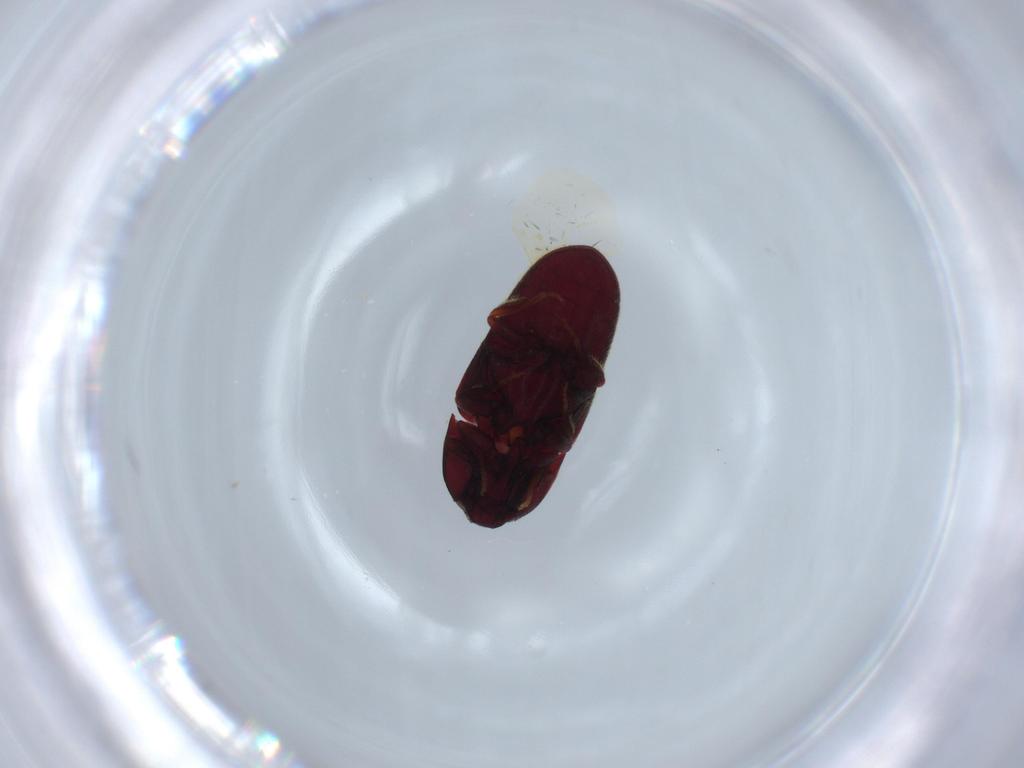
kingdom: Animalia
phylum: Arthropoda
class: Insecta
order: Coleoptera
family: Throscidae
